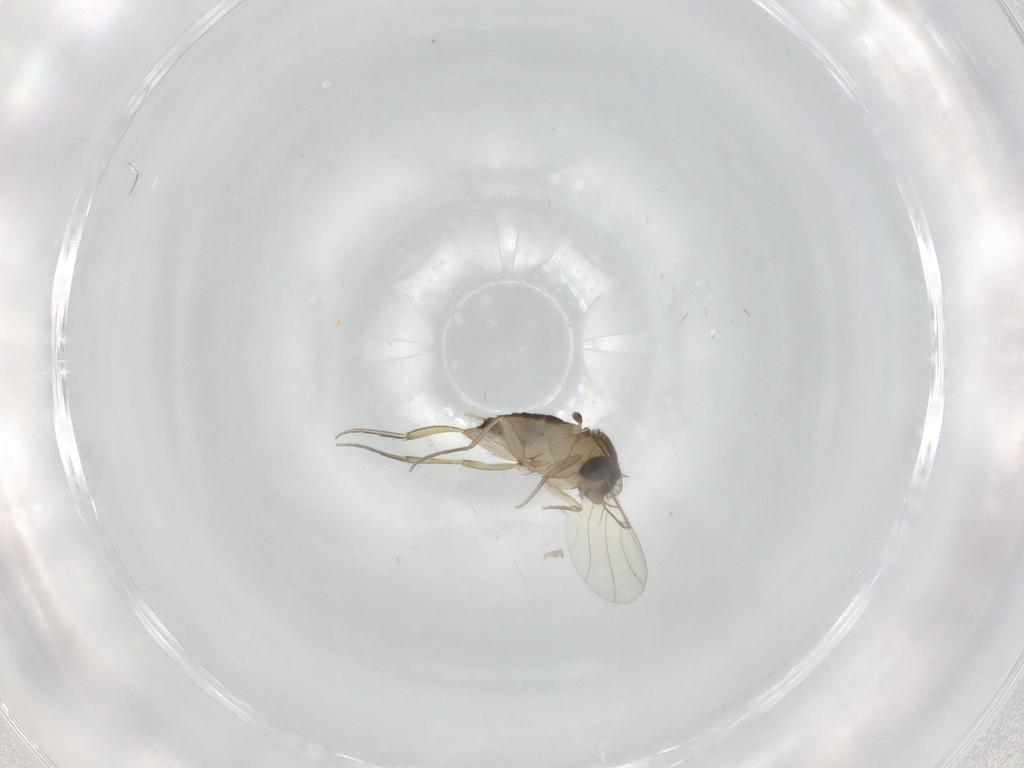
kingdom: Animalia
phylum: Arthropoda
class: Insecta
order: Diptera
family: Phoridae
